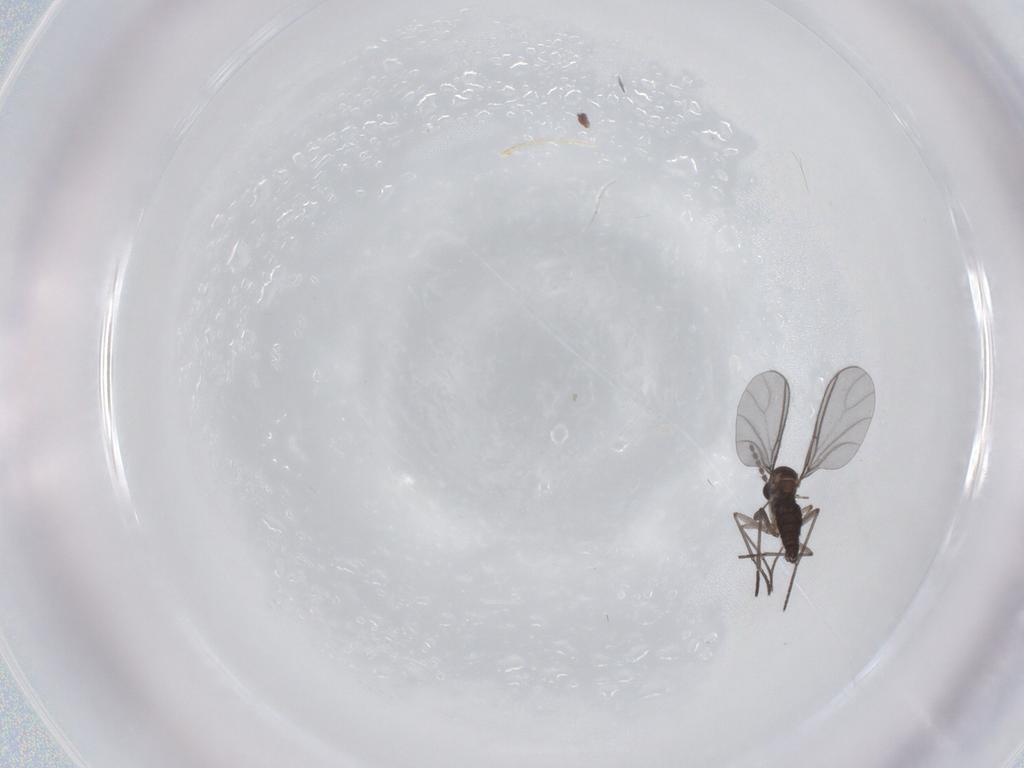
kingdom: Animalia
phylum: Arthropoda
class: Insecta
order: Diptera
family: Sciaridae
